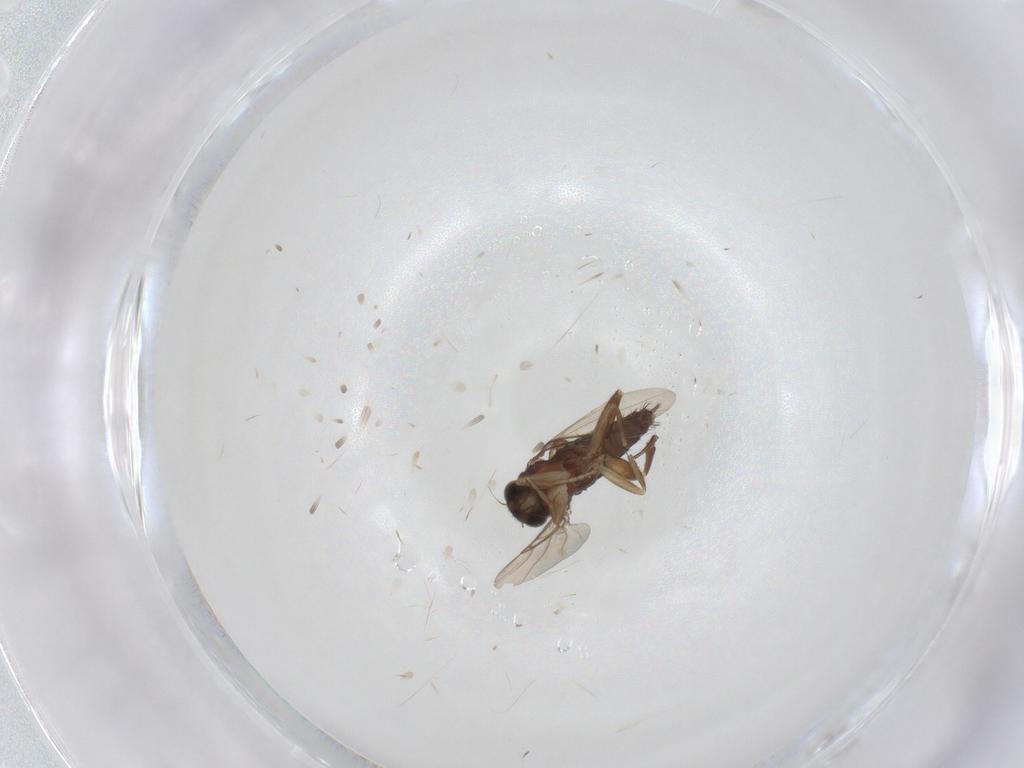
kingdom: Animalia
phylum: Arthropoda
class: Insecta
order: Diptera
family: Phoridae
